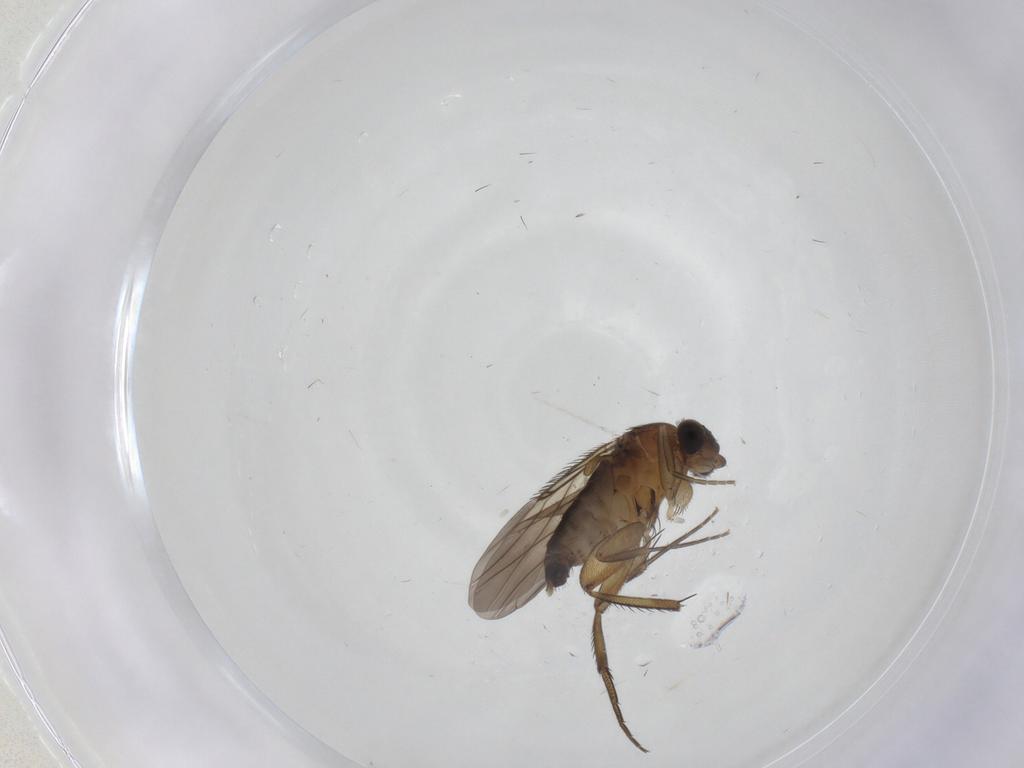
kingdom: Animalia
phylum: Arthropoda
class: Insecta
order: Diptera
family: Phoridae
